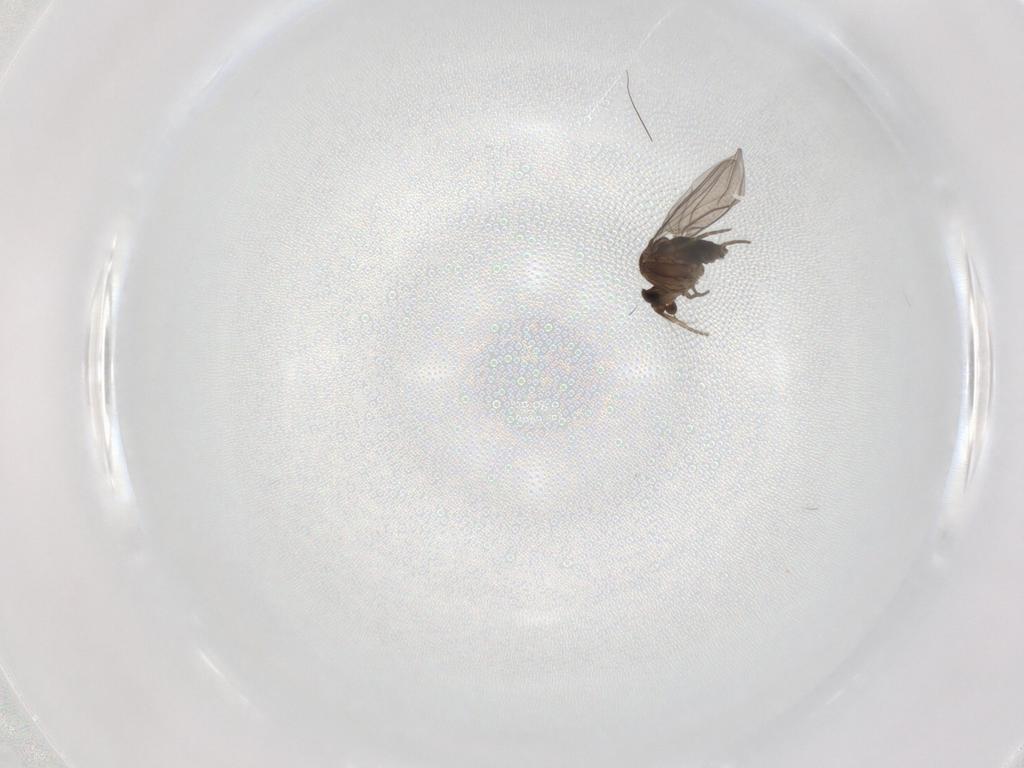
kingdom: Animalia
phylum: Arthropoda
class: Insecta
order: Diptera
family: Phoridae
